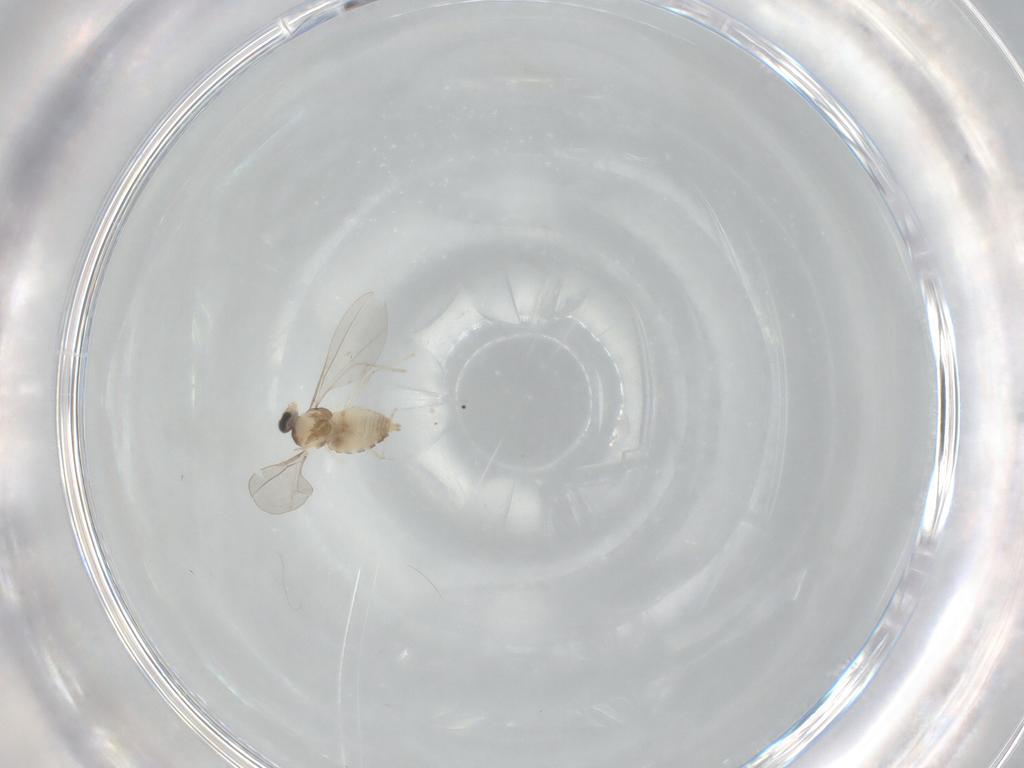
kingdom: Animalia
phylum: Arthropoda
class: Insecta
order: Diptera
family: Cecidomyiidae
